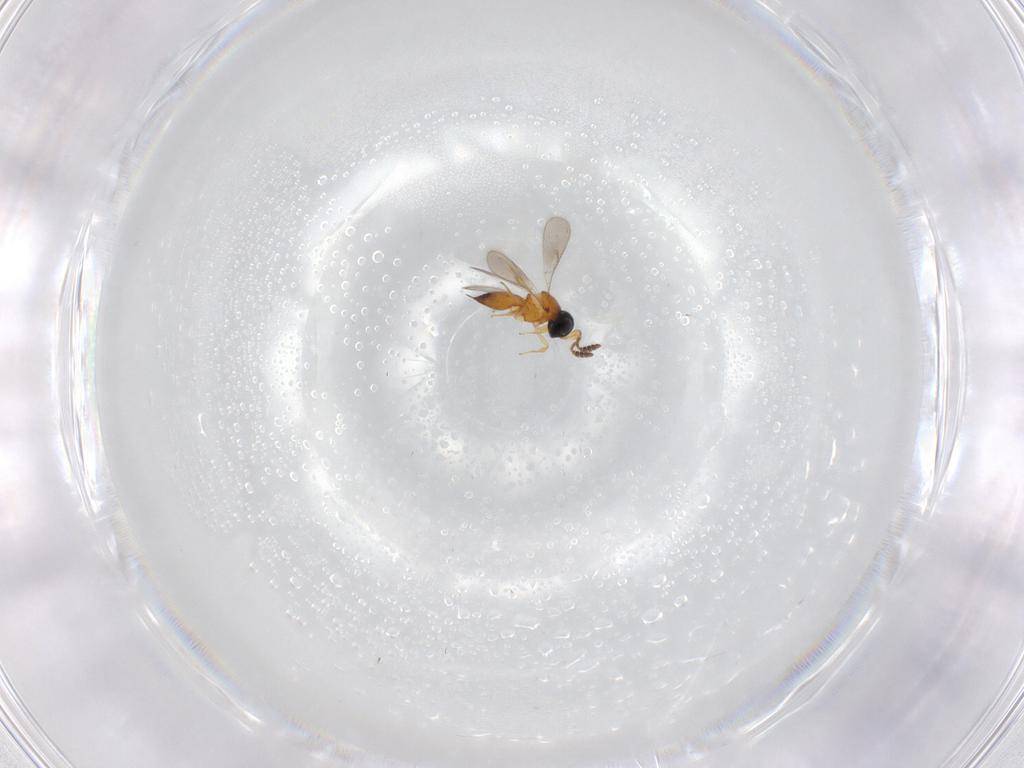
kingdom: Animalia
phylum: Arthropoda
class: Insecta
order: Hymenoptera
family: Scelionidae
